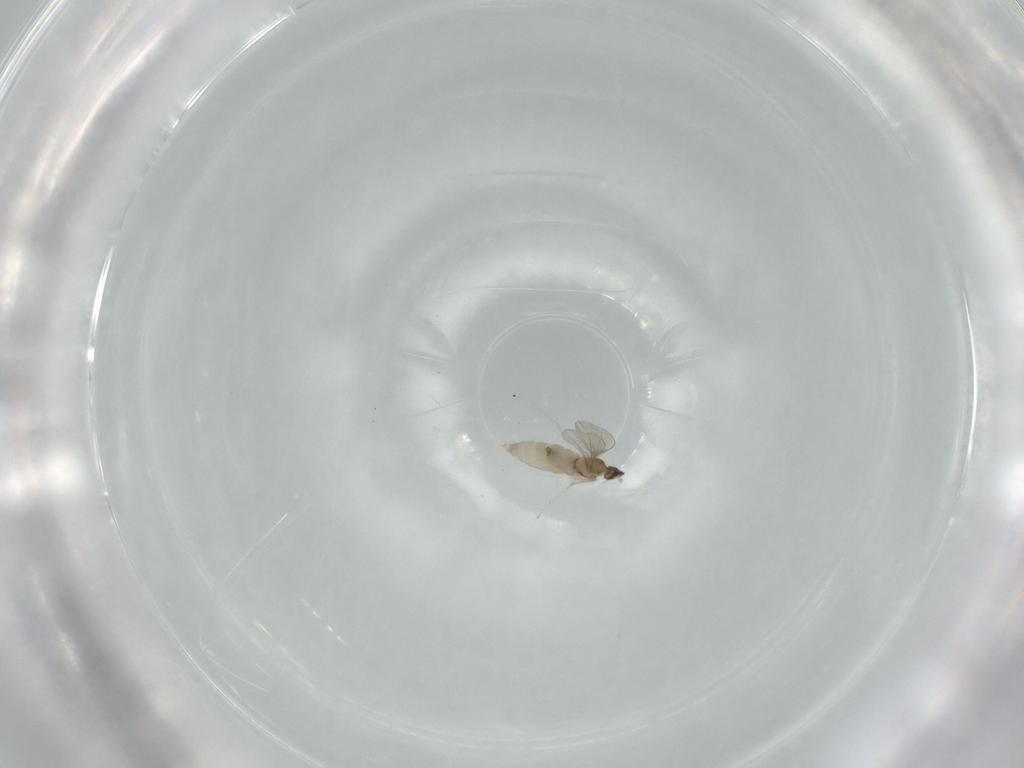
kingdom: Animalia
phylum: Arthropoda
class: Insecta
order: Diptera
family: Cecidomyiidae
